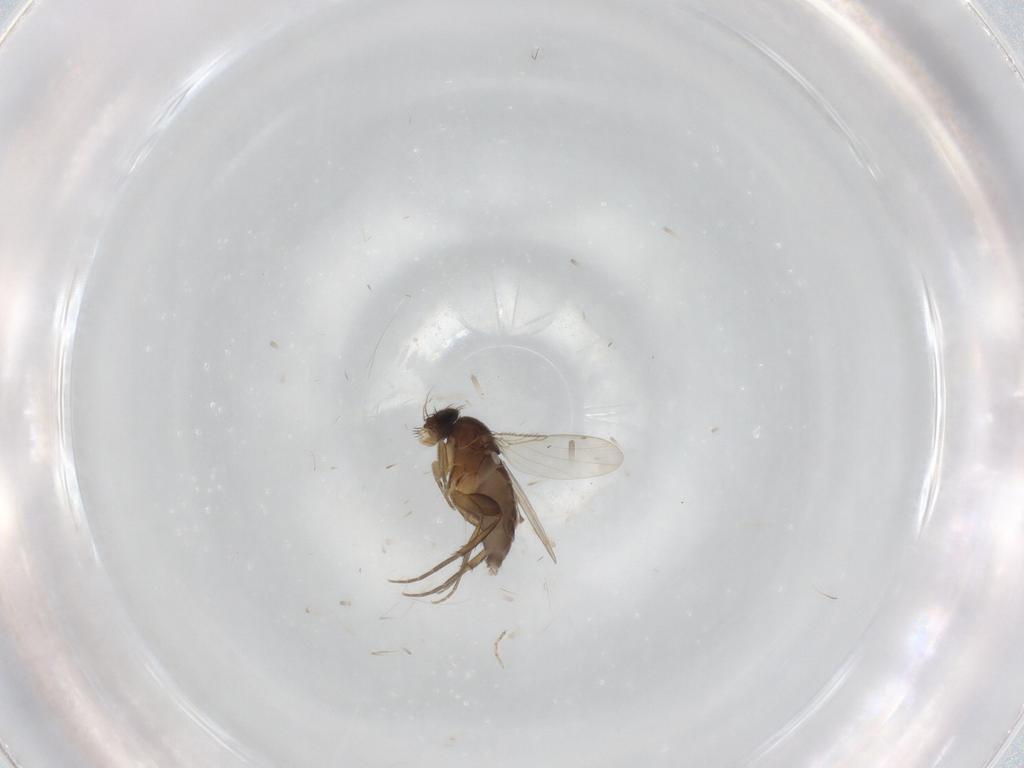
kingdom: Animalia
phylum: Arthropoda
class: Insecta
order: Diptera
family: Phoridae
